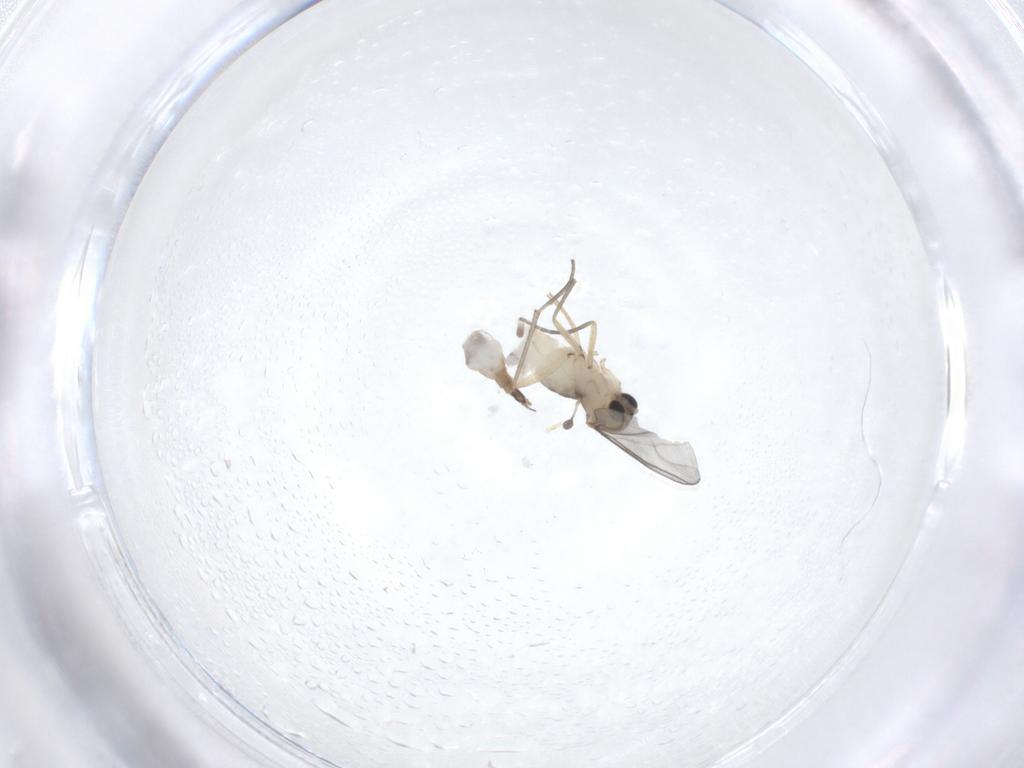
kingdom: Animalia
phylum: Arthropoda
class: Insecta
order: Diptera
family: Sciaridae
